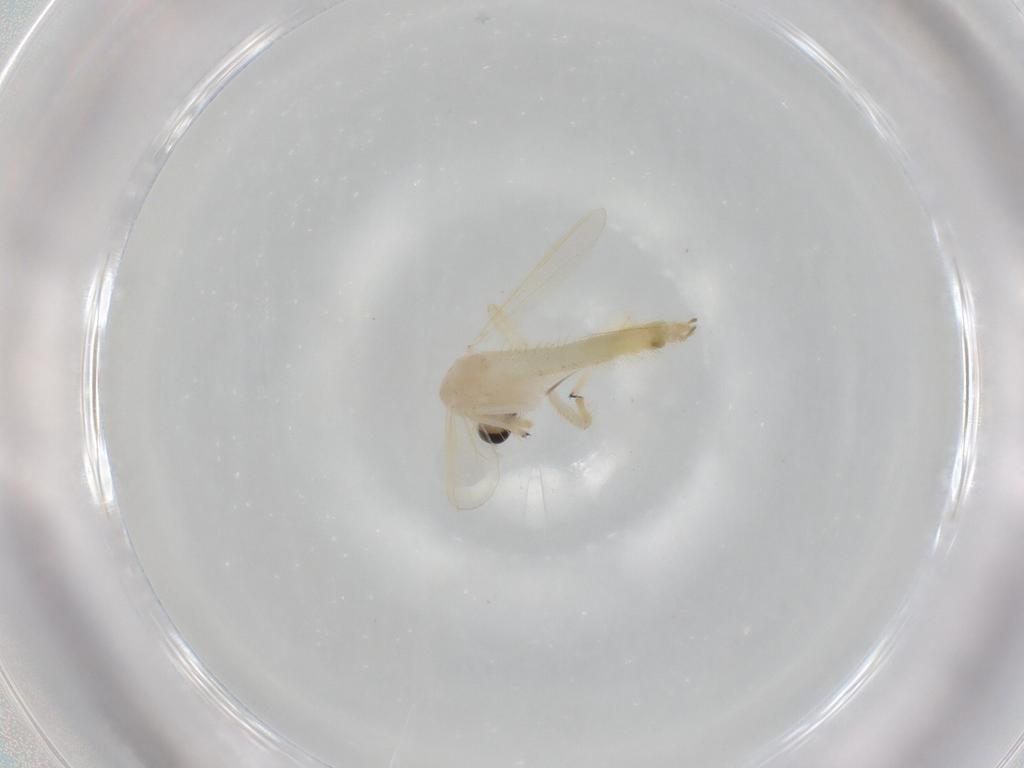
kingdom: Animalia
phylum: Arthropoda
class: Insecta
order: Diptera
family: Chironomidae
